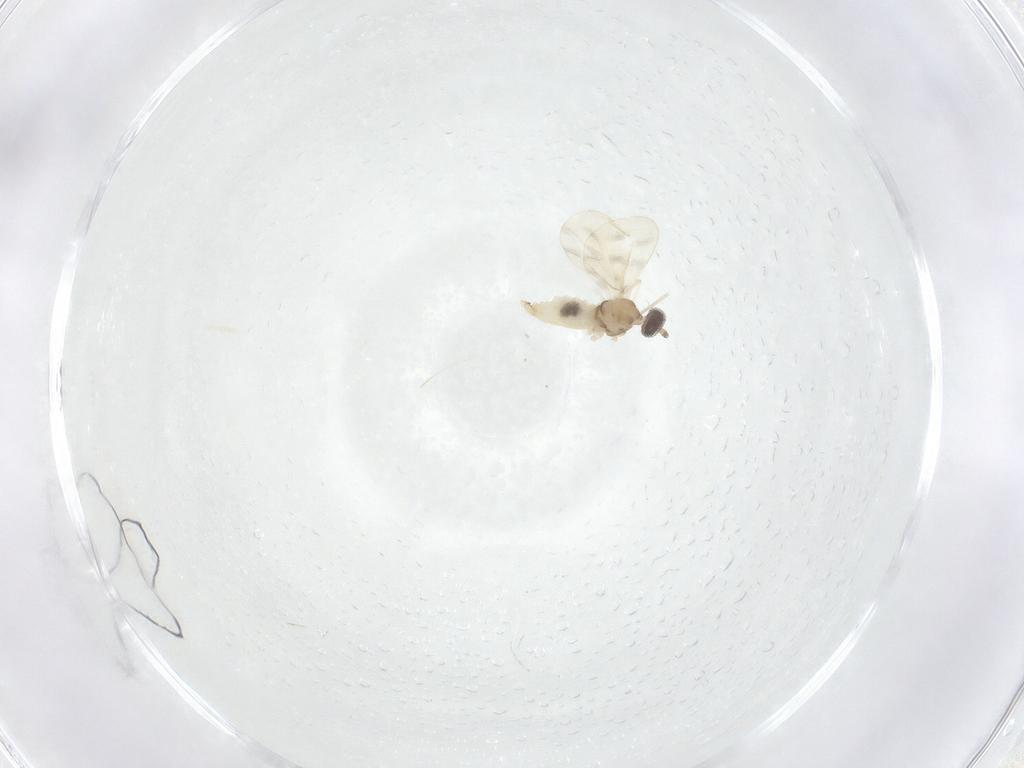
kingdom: Animalia
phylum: Arthropoda
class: Insecta
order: Diptera
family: Cecidomyiidae
